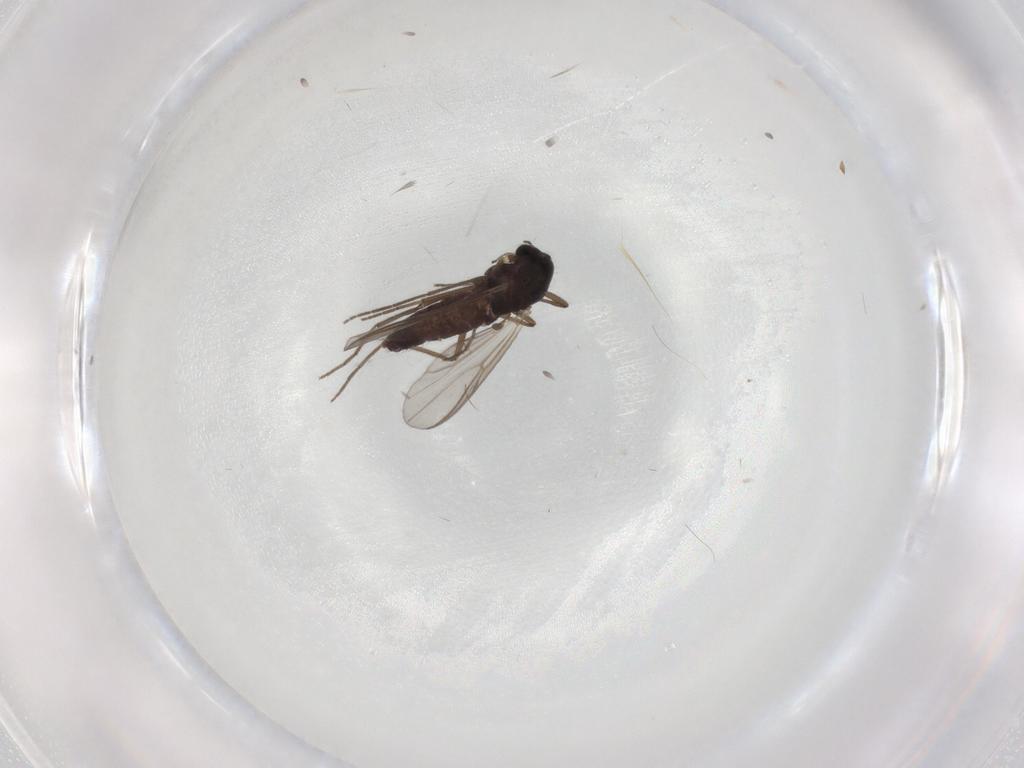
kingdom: Animalia
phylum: Arthropoda
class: Insecta
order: Diptera
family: Chironomidae
